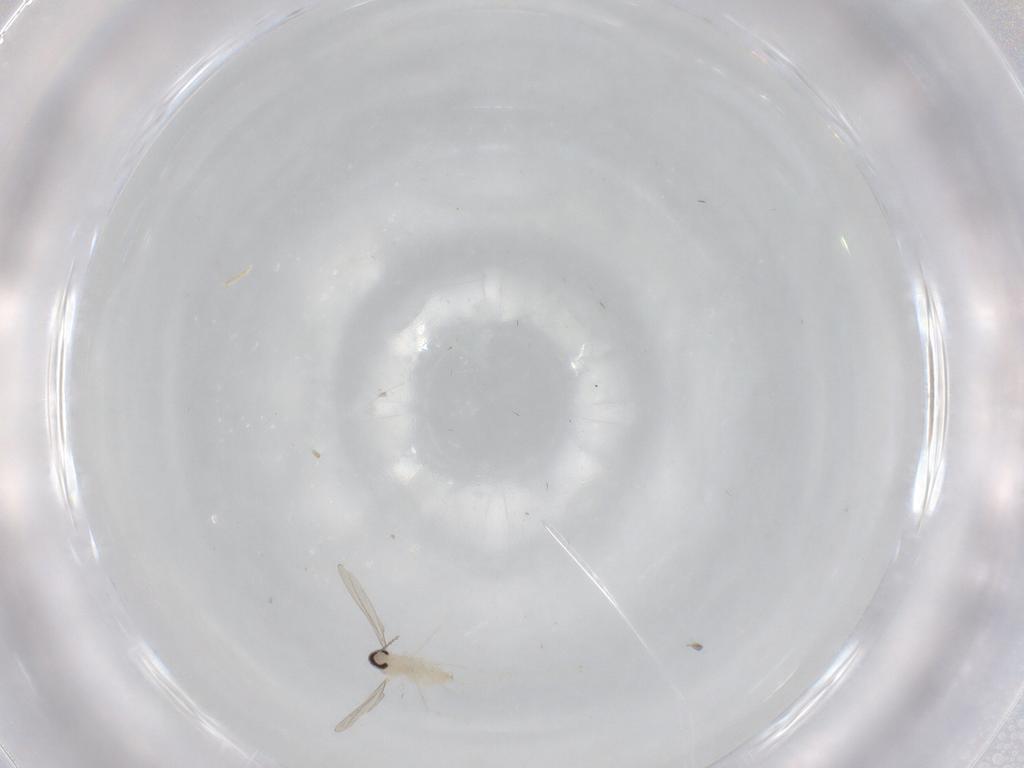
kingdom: Animalia
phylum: Arthropoda
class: Insecta
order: Diptera
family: Cecidomyiidae
